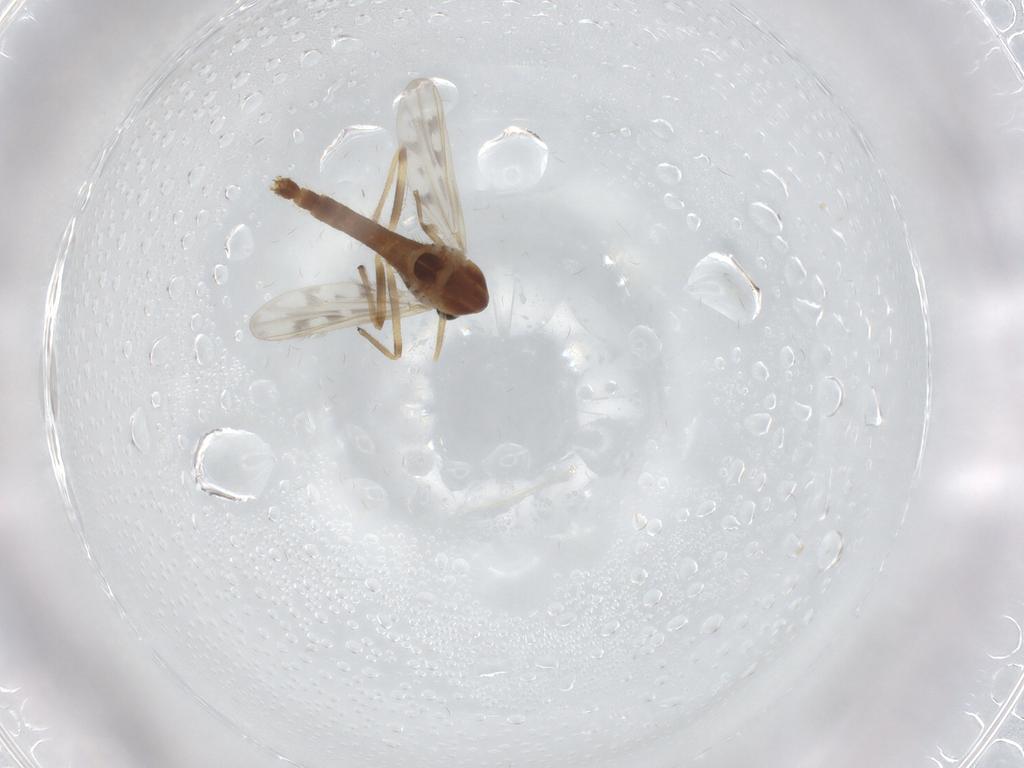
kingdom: Animalia
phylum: Arthropoda
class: Insecta
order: Diptera
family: Chironomidae
